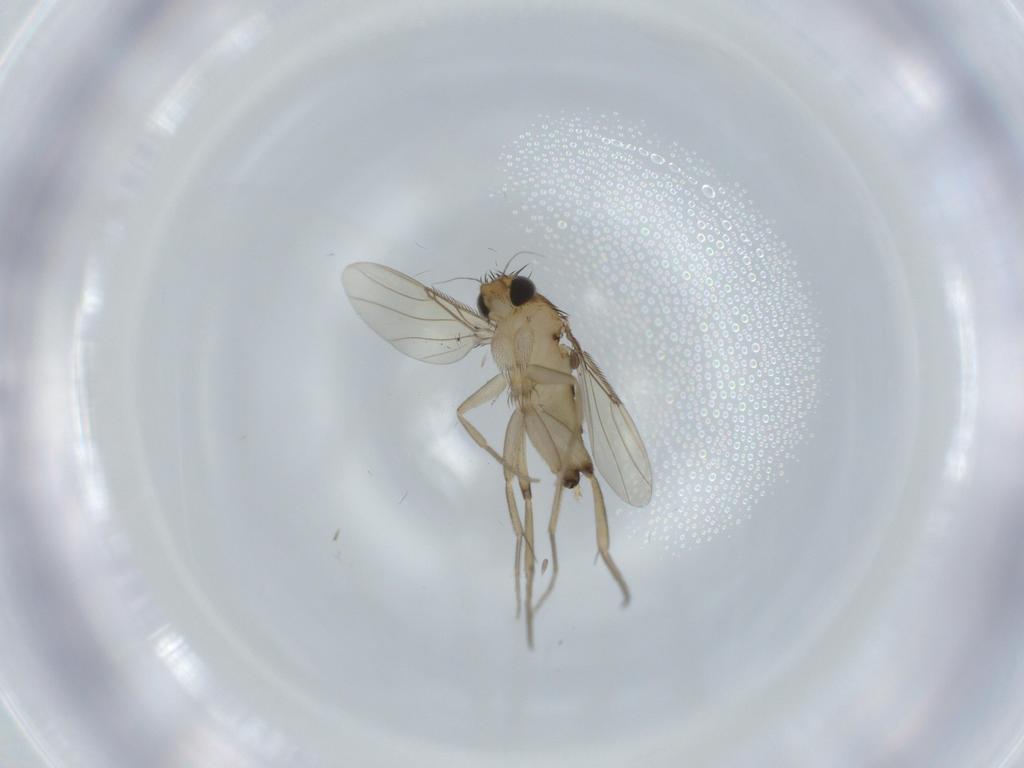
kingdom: Animalia
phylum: Arthropoda
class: Insecta
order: Diptera
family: Phoridae
